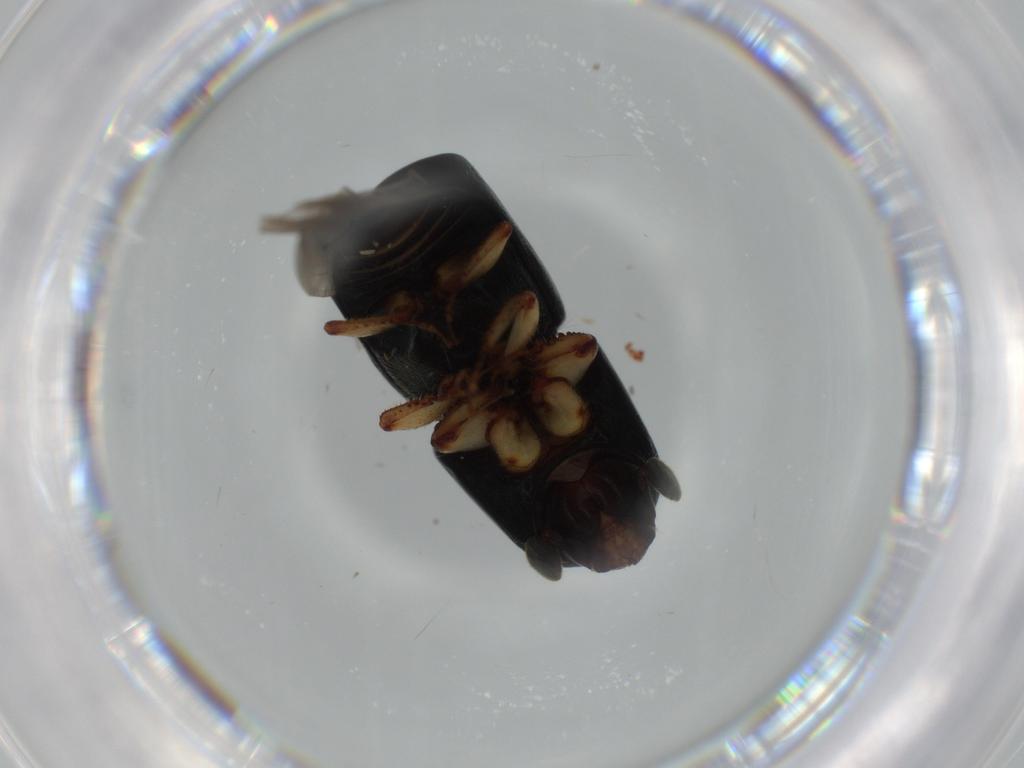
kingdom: Animalia
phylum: Arthropoda
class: Insecta
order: Coleoptera
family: Curculionidae
